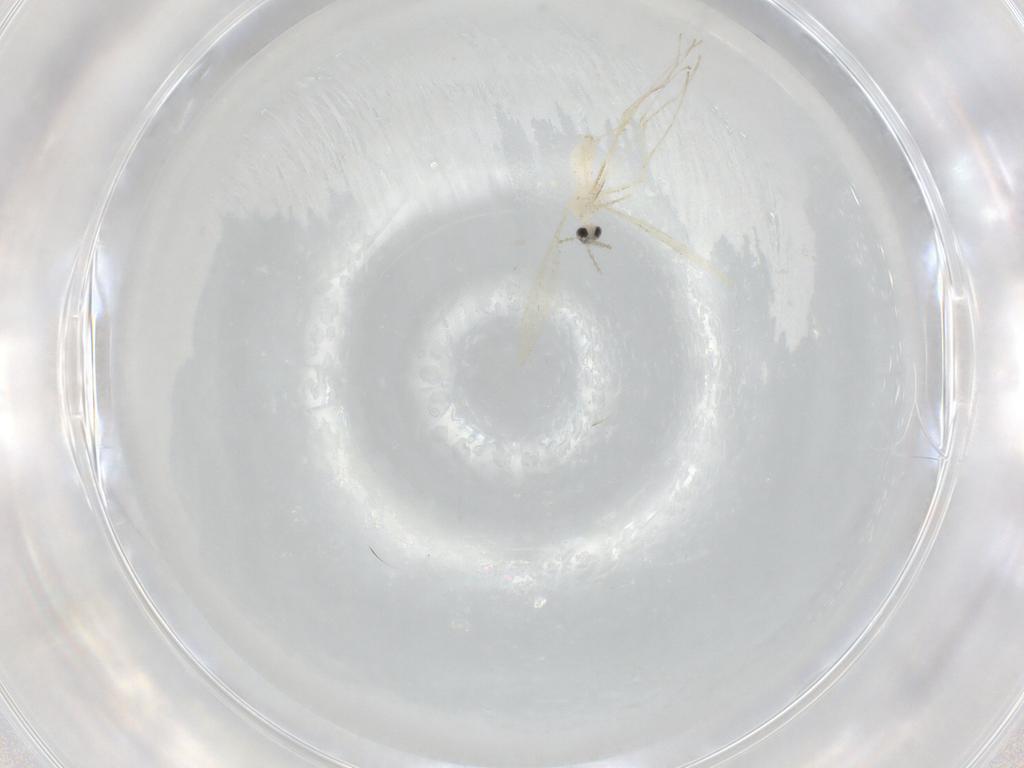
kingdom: Animalia
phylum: Arthropoda
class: Insecta
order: Diptera
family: Cecidomyiidae
